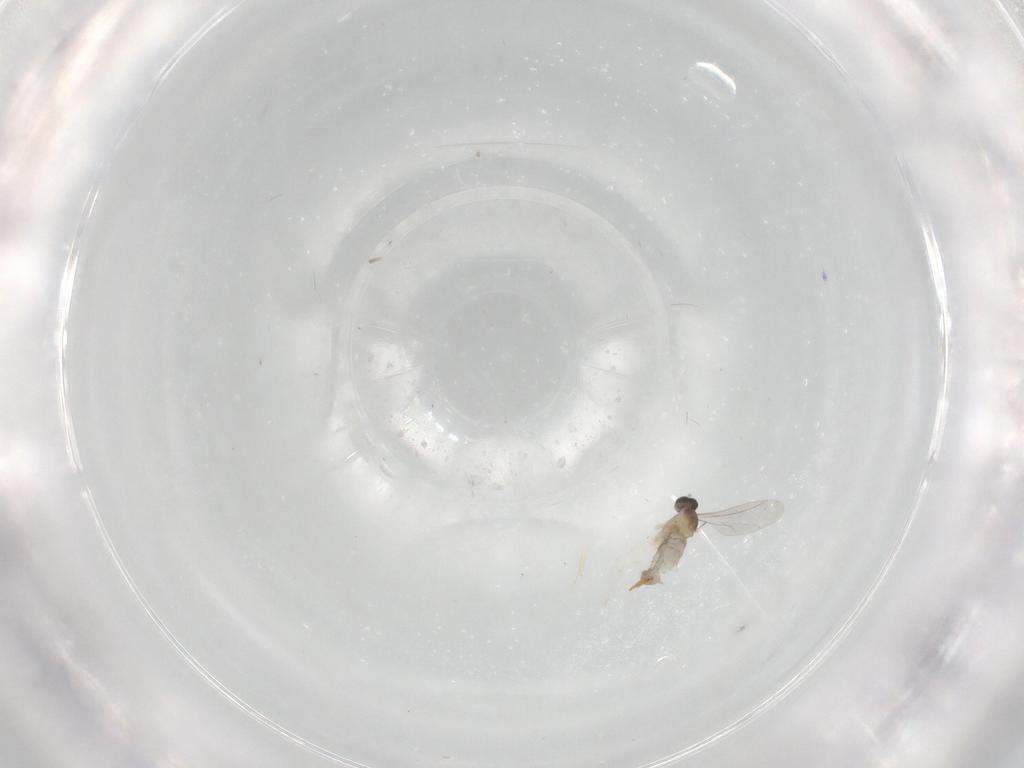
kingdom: Animalia
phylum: Arthropoda
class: Insecta
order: Diptera
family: Cecidomyiidae
